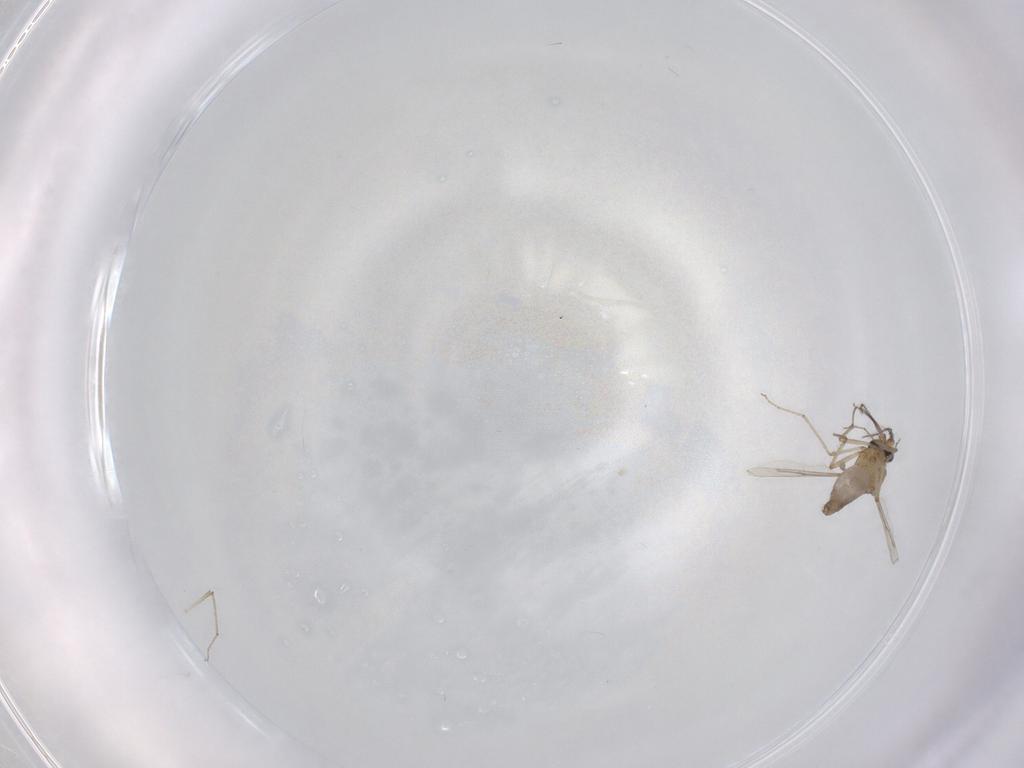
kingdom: Animalia
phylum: Arthropoda
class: Insecta
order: Diptera
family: Ceratopogonidae
